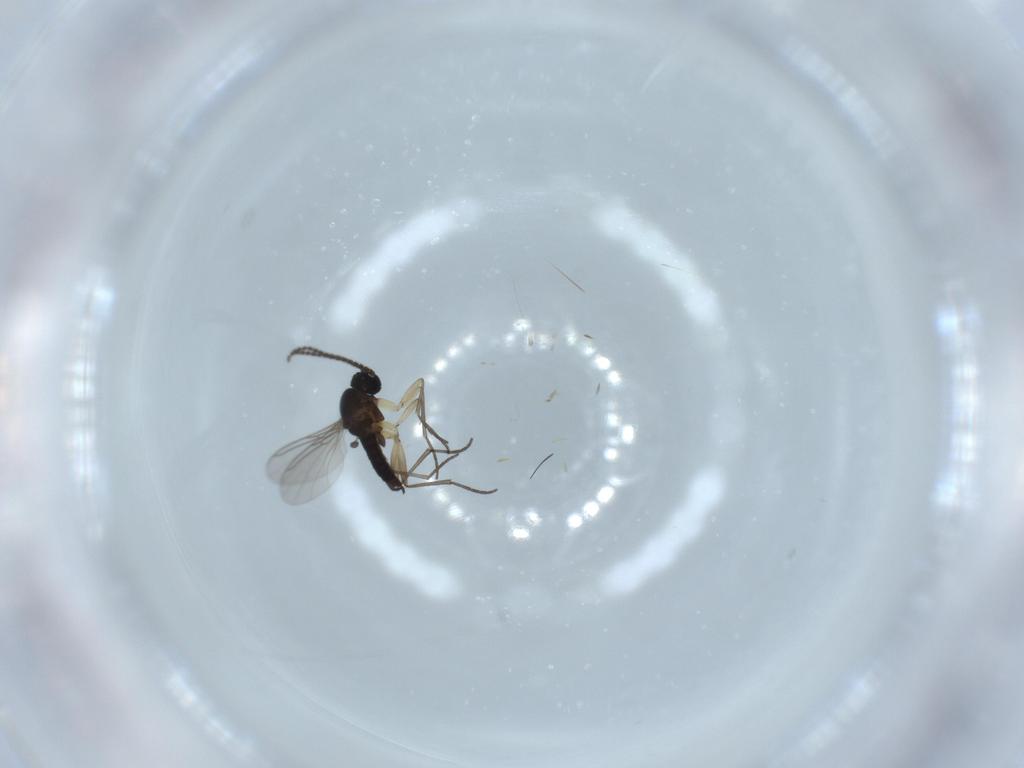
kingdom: Animalia
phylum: Arthropoda
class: Insecta
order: Diptera
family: Sciaridae
